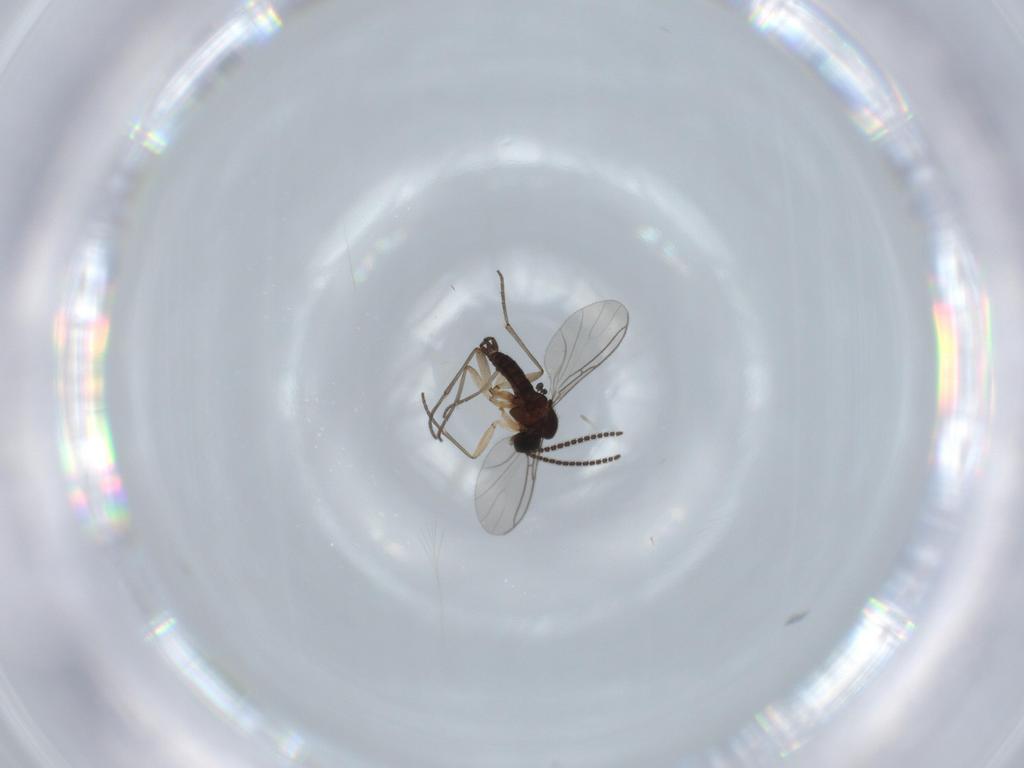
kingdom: Animalia
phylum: Arthropoda
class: Insecta
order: Diptera
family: Sciaridae
